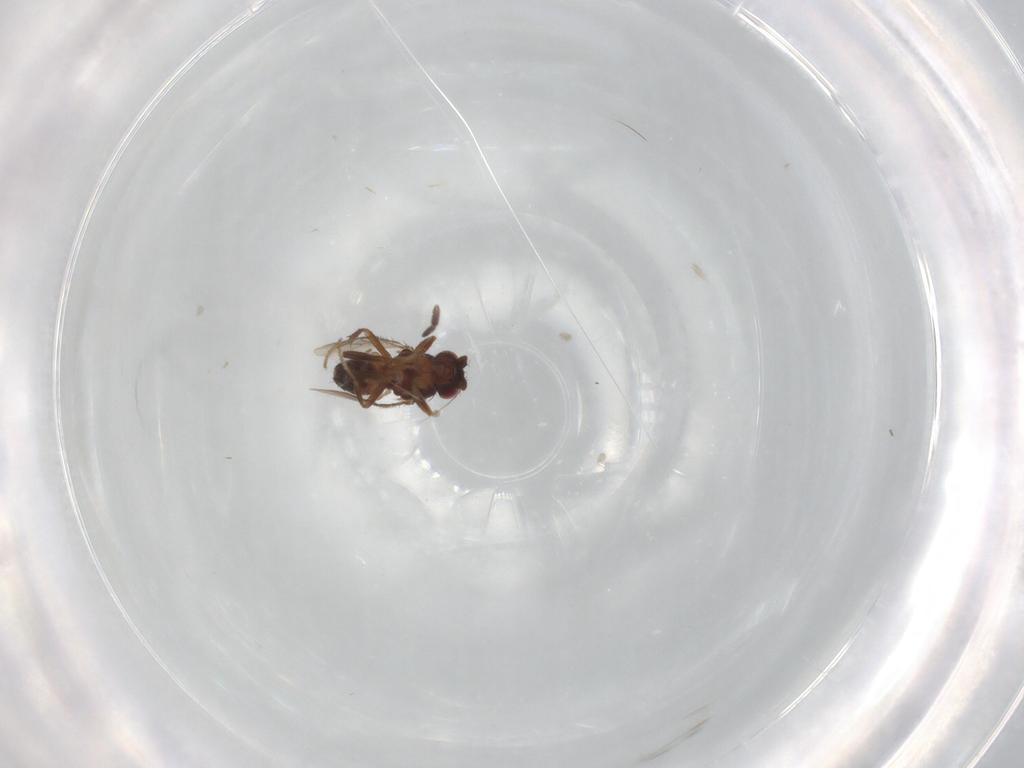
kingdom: Animalia
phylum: Arthropoda
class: Insecta
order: Diptera
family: Sphaeroceridae
